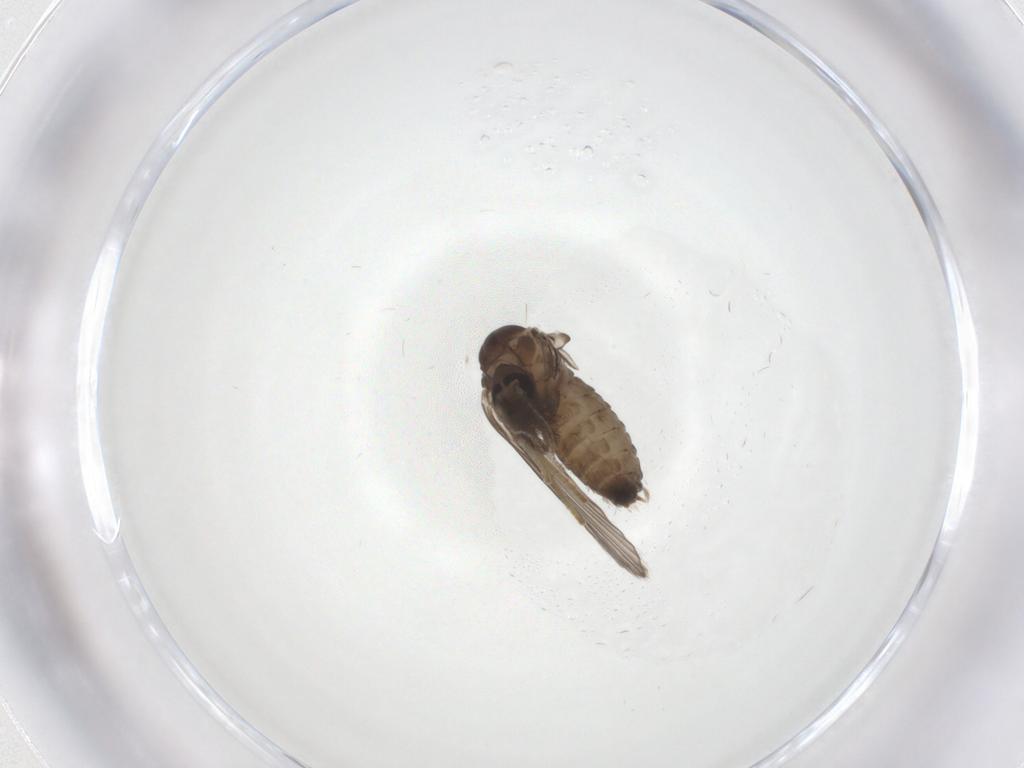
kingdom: Animalia
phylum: Arthropoda
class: Insecta
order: Diptera
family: Psychodidae
